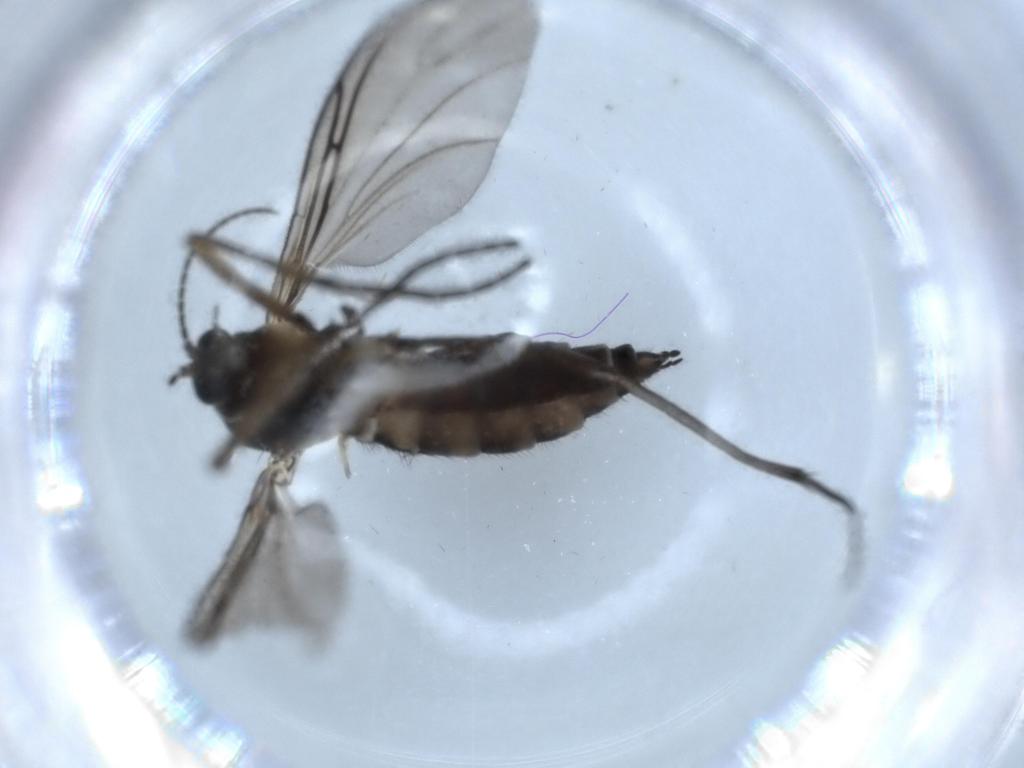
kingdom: Animalia
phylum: Arthropoda
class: Insecta
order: Diptera
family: Sciaridae
